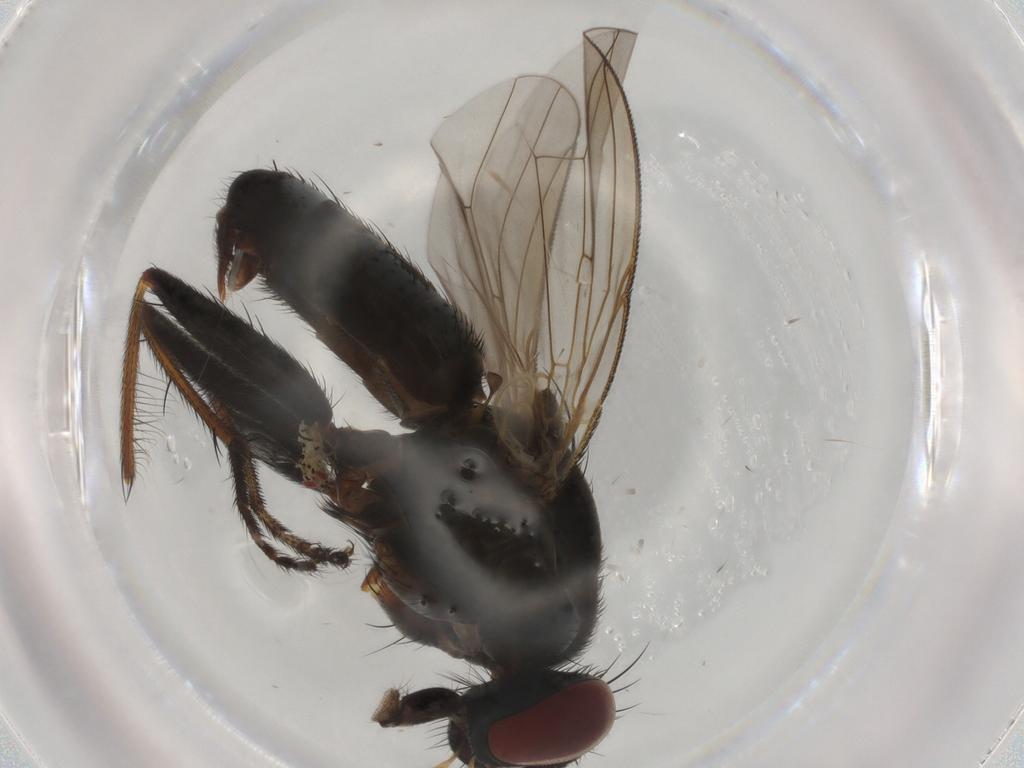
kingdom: Animalia
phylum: Arthropoda
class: Insecta
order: Diptera
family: Muscidae
